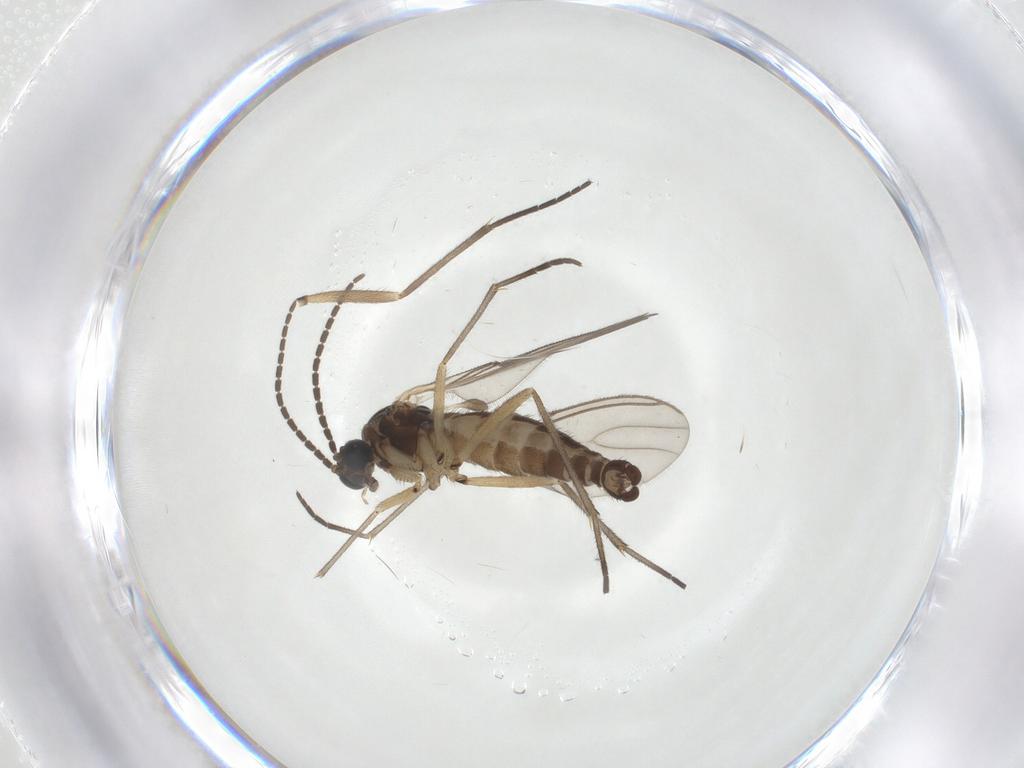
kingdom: Animalia
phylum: Arthropoda
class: Insecta
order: Diptera
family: Sciaridae
